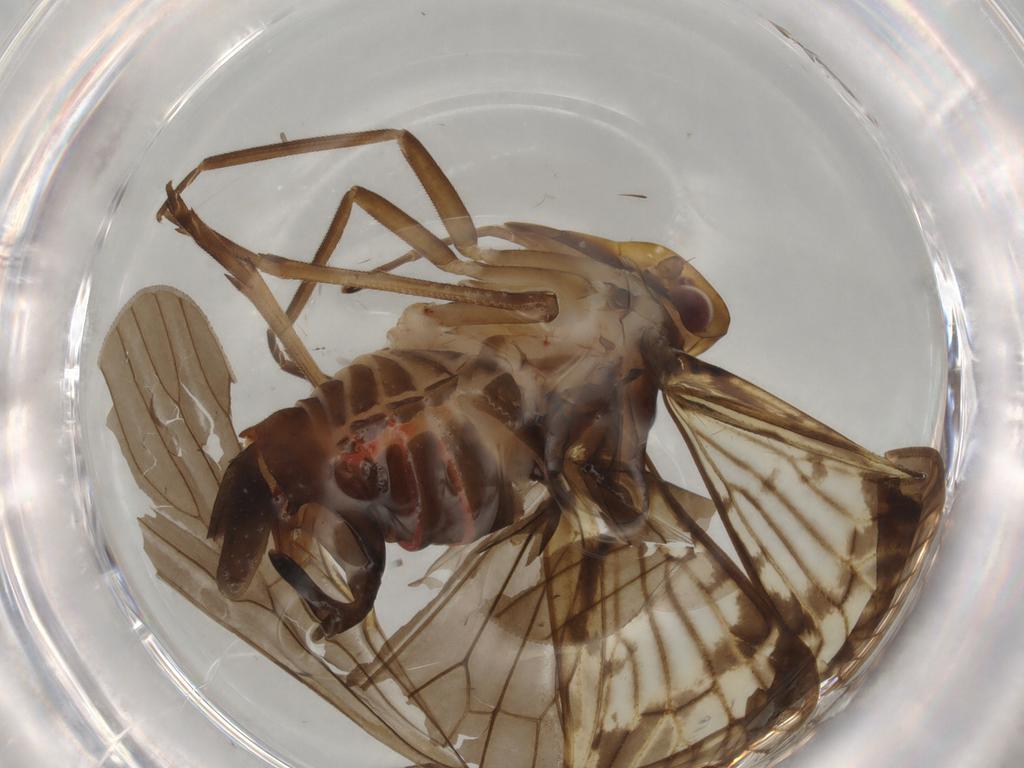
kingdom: Animalia
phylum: Arthropoda
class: Insecta
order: Hemiptera
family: Cixiidae
